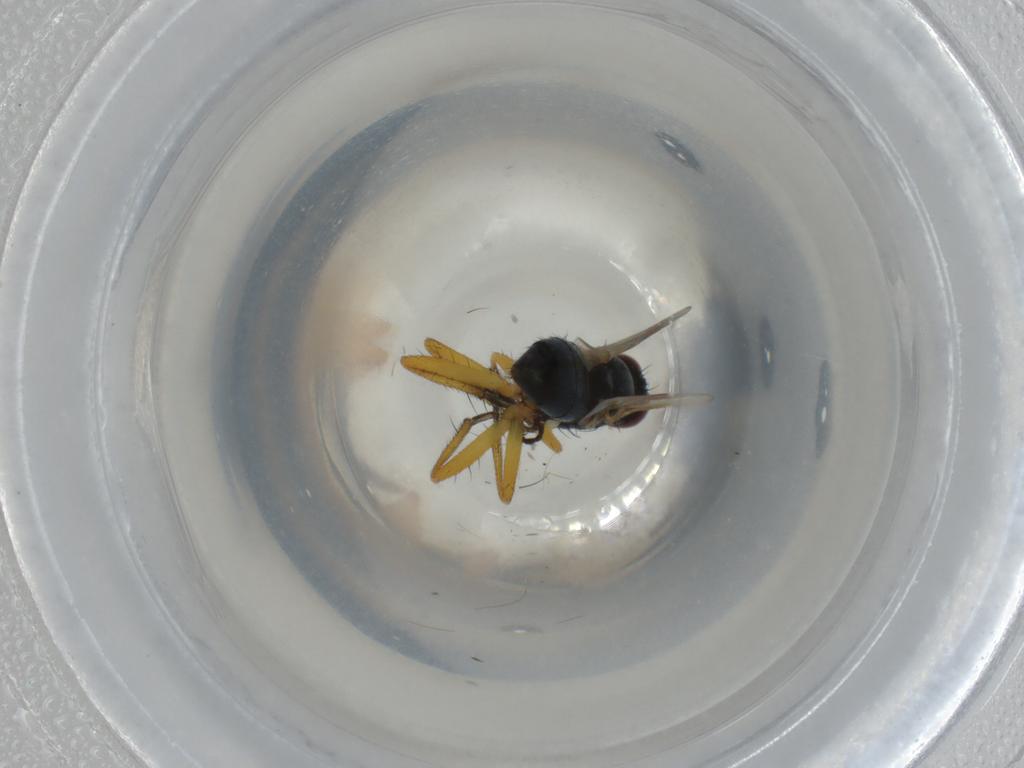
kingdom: Animalia
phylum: Arthropoda
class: Insecta
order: Diptera
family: Muscidae
